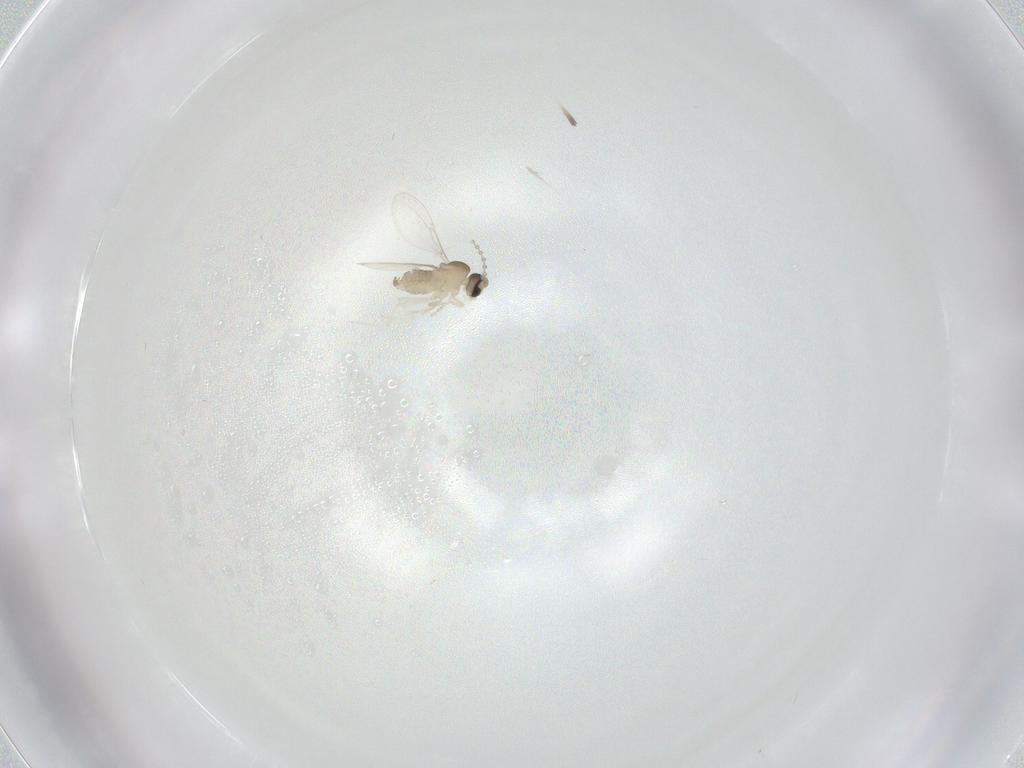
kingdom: Animalia
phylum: Arthropoda
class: Insecta
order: Diptera
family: Cecidomyiidae
